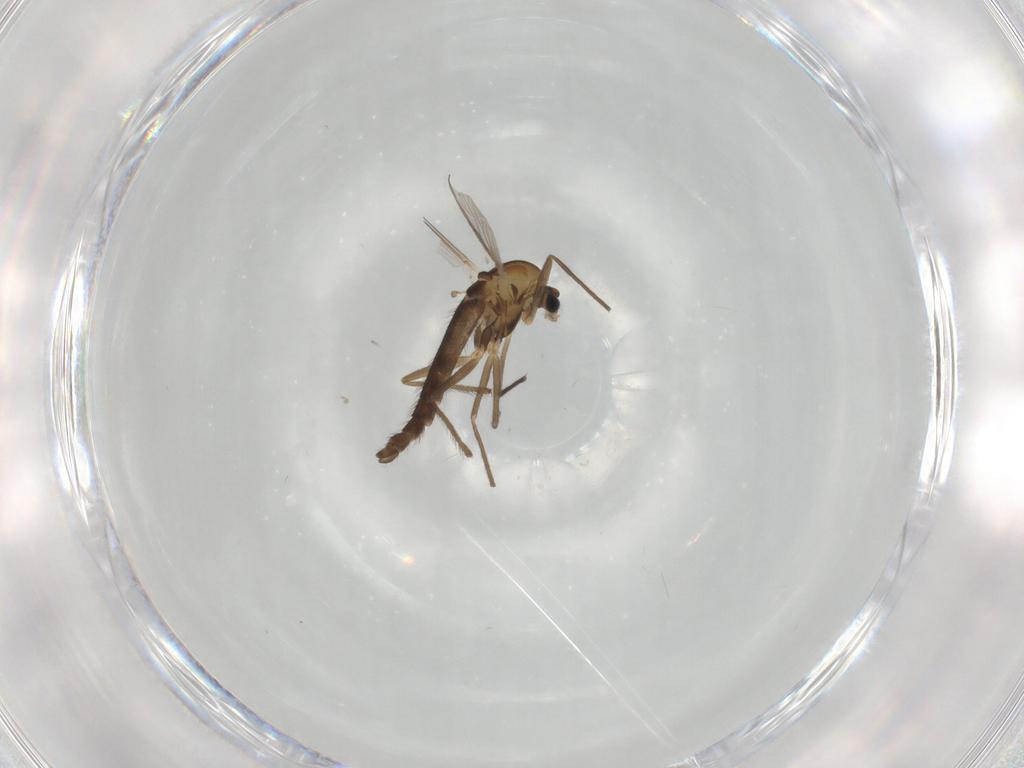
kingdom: Animalia
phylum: Arthropoda
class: Insecta
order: Diptera
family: Chironomidae
